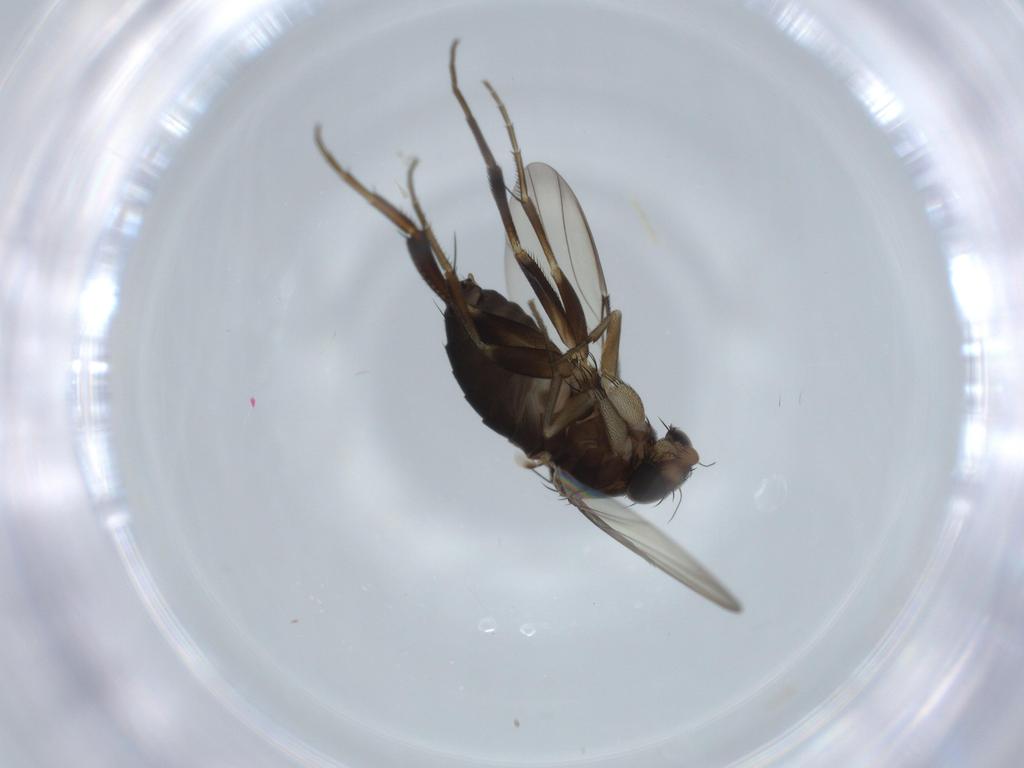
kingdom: Animalia
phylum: Arthropoda
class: Insecta
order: Diptera
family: Phoridae
